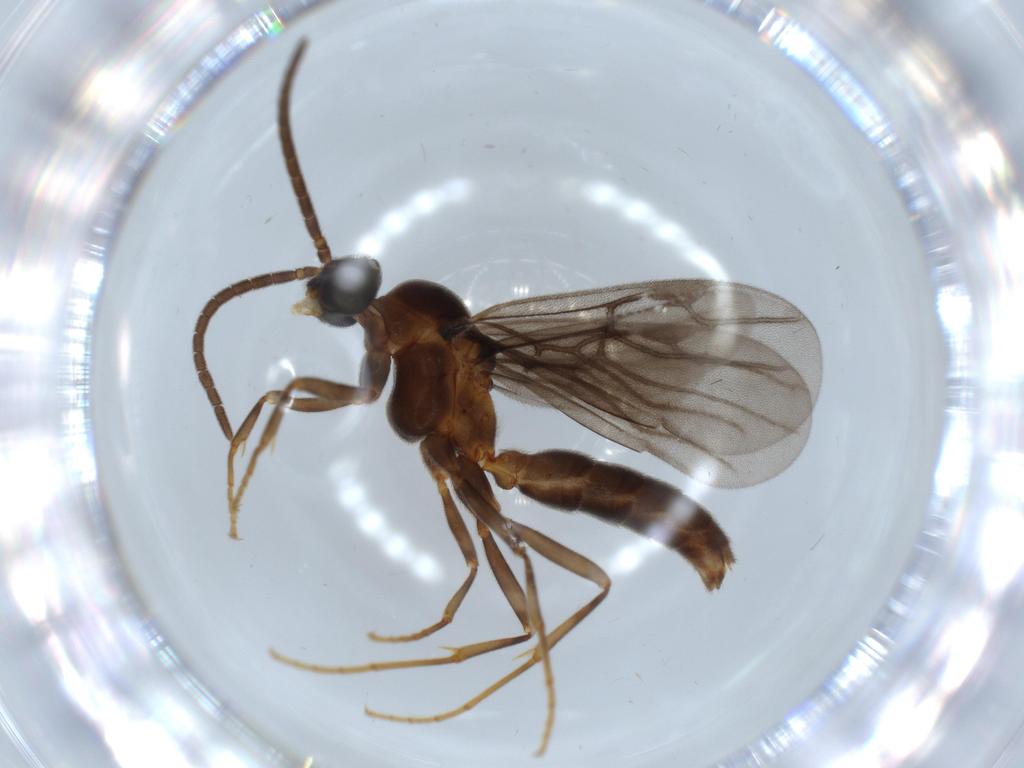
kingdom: Animalia
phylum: Arthropoda
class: Insecta
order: Hymenoptera
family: Formicidae
